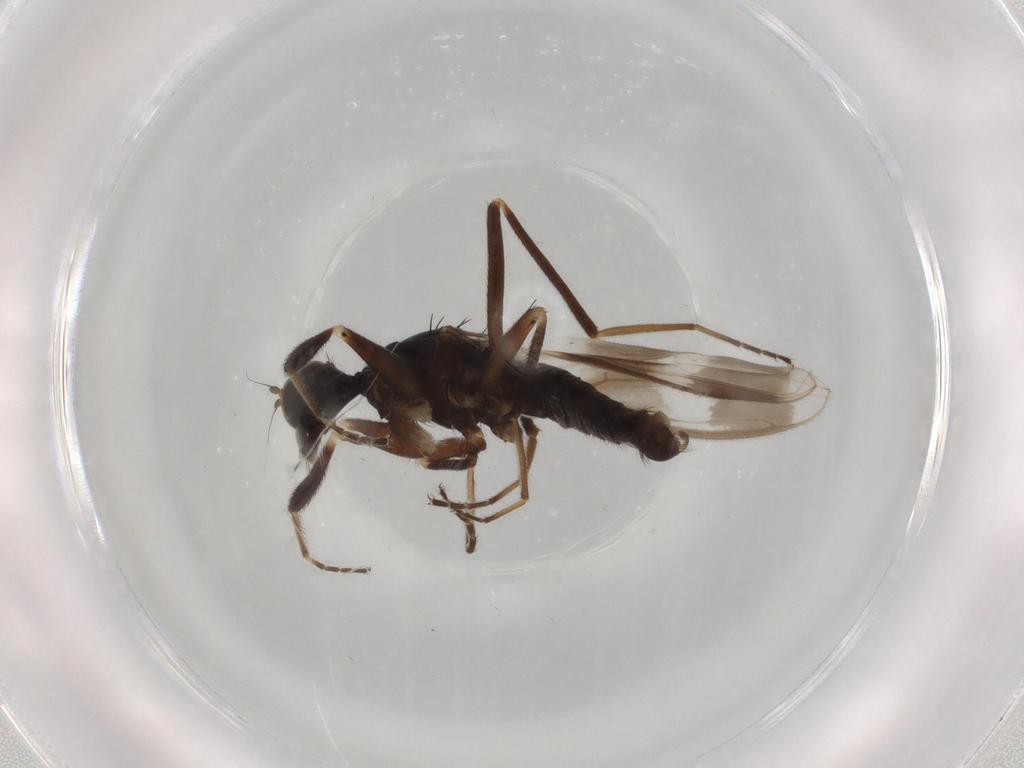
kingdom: Animalia
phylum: Arthropoda
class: Insecta
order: Diptera
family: Hybotidae
